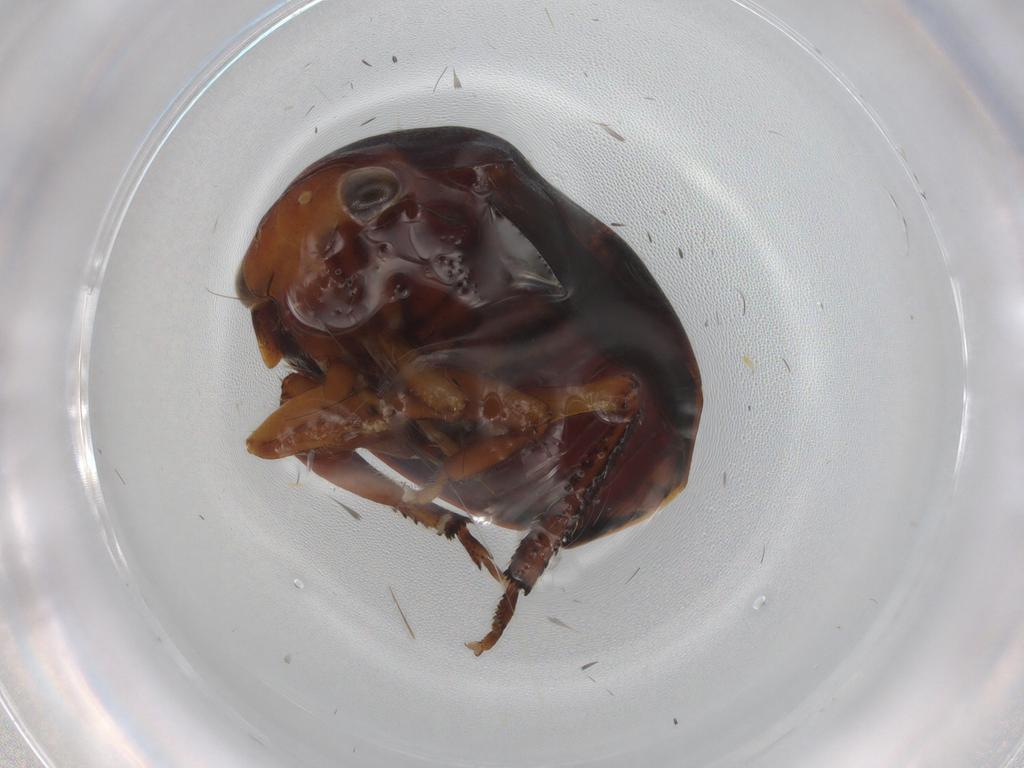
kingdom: Animalia
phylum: Arthropoda
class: Insecta
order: Hemiptera
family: Membracidae
